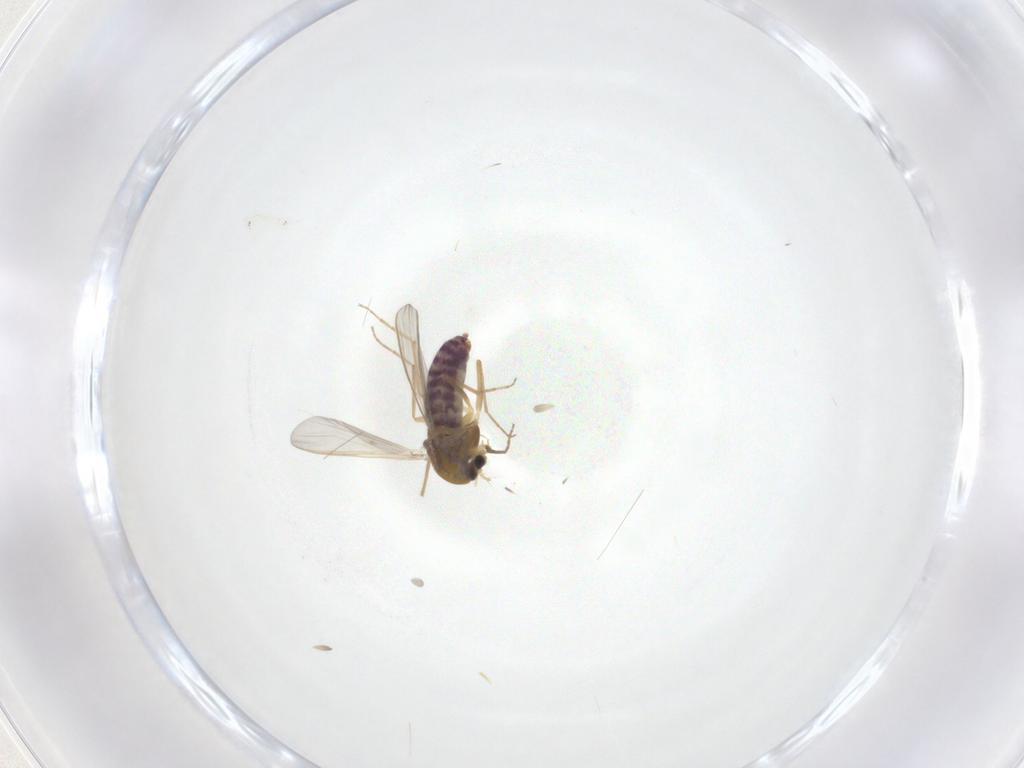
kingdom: Animalia
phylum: Arthropoda
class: Insecta
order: Diptera
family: Chironomidae
